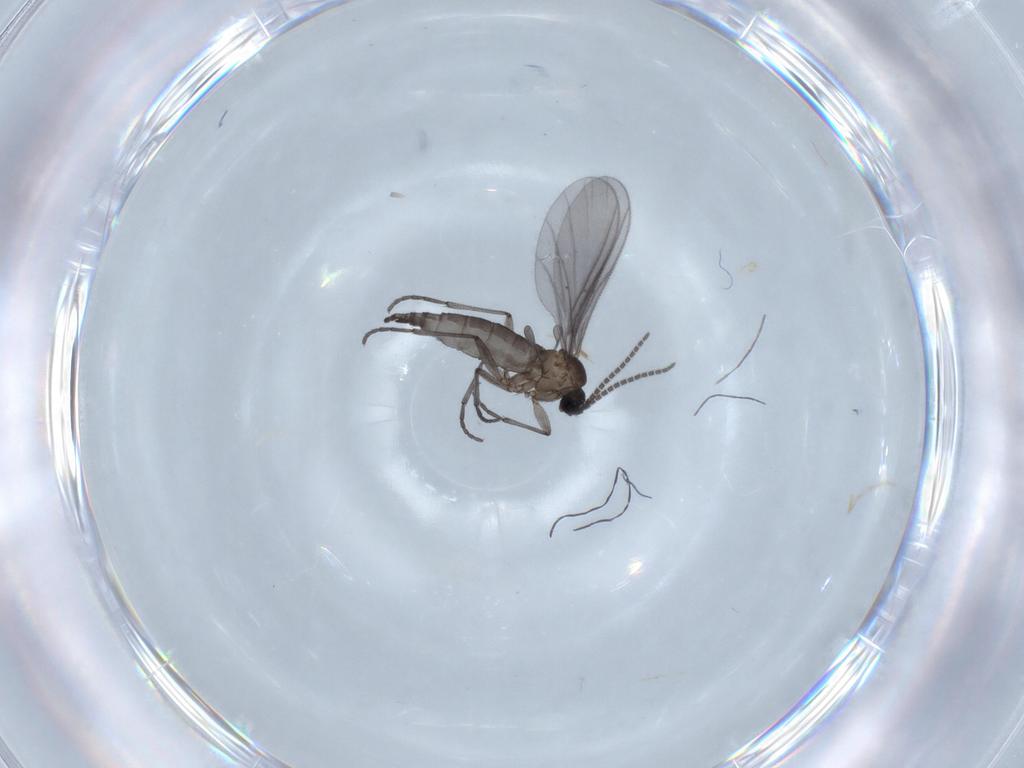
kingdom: Animalia
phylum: Arthropoda
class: Insecta
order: Diptera
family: Sciaridae
